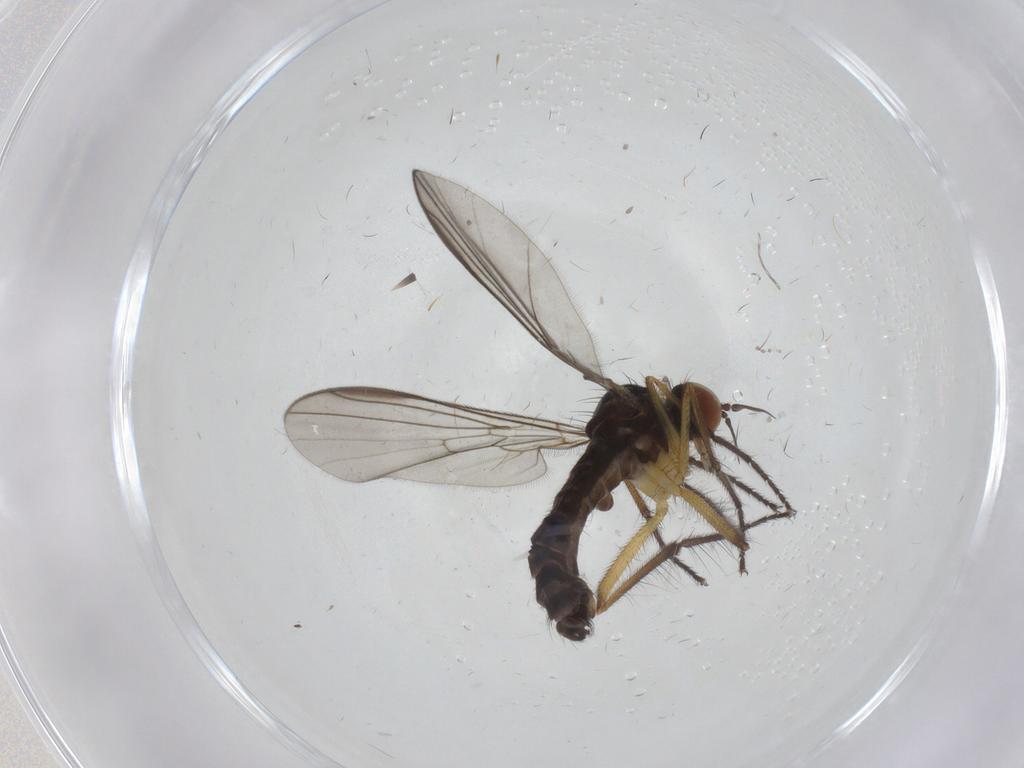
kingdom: Animalia
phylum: Arthropoda
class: Insecta
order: Diptera
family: Empididae
